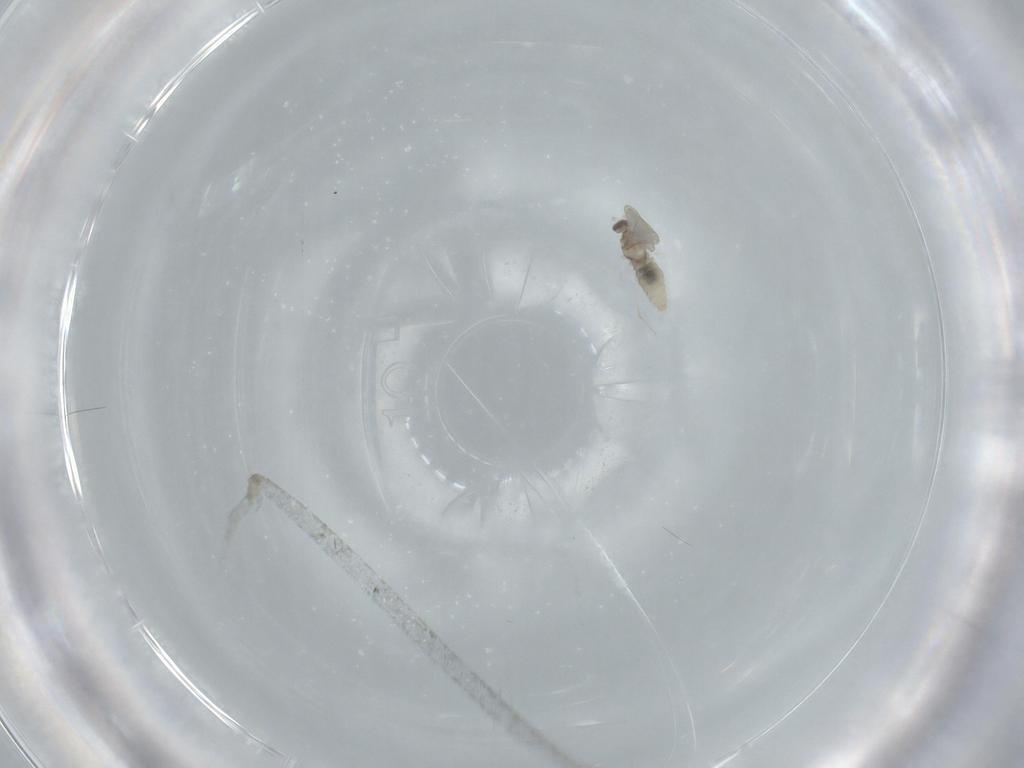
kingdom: Animalia
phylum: Arthropoda
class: Insecta
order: Diptera
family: Cecidomyiidae
